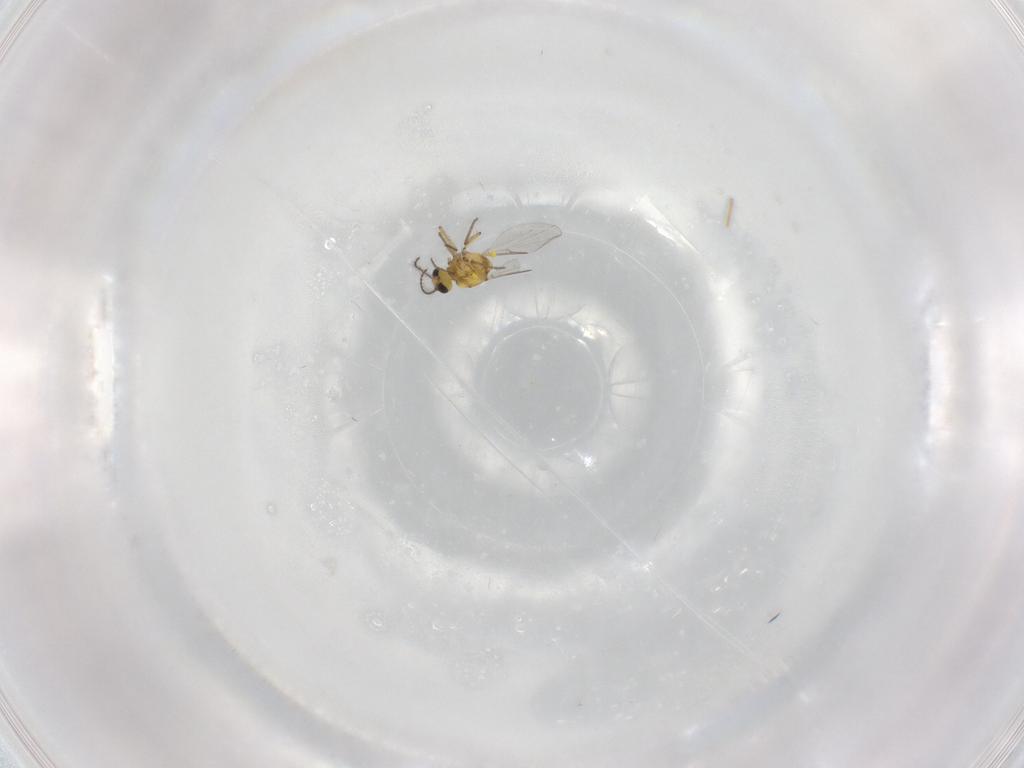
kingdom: Animalia
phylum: Arthropoda
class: Insecta
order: Diptera
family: Ceratopogonidae
